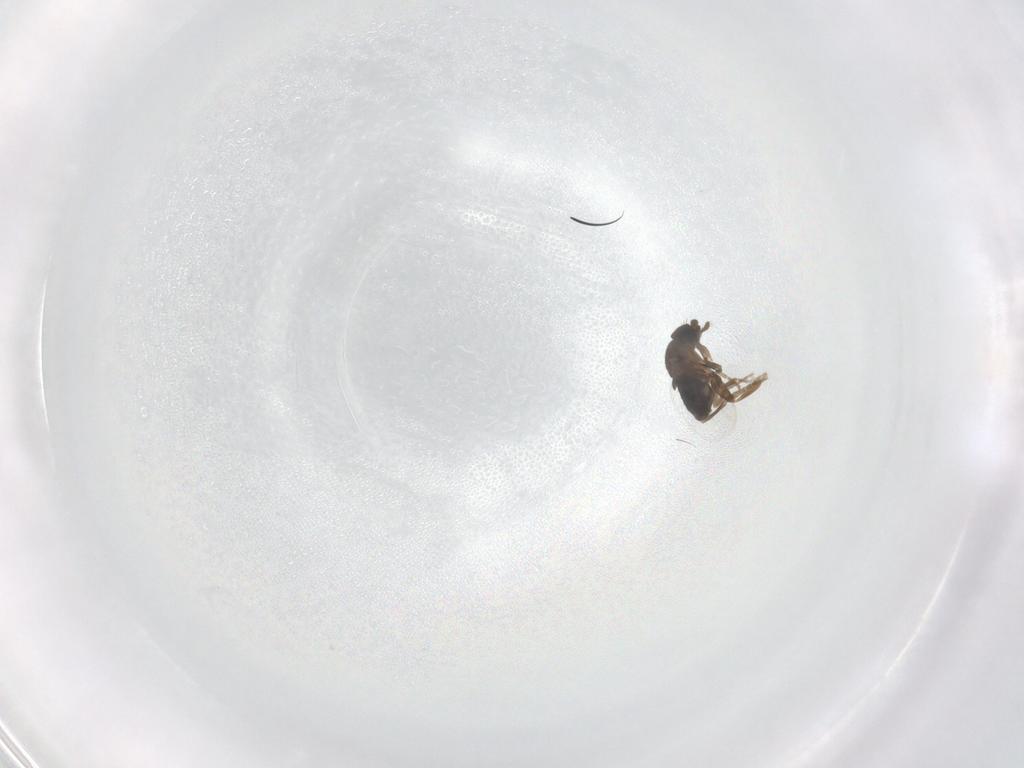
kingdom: Animalia
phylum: Arthropoda
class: Insecta
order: Diptera
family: Phoridae
